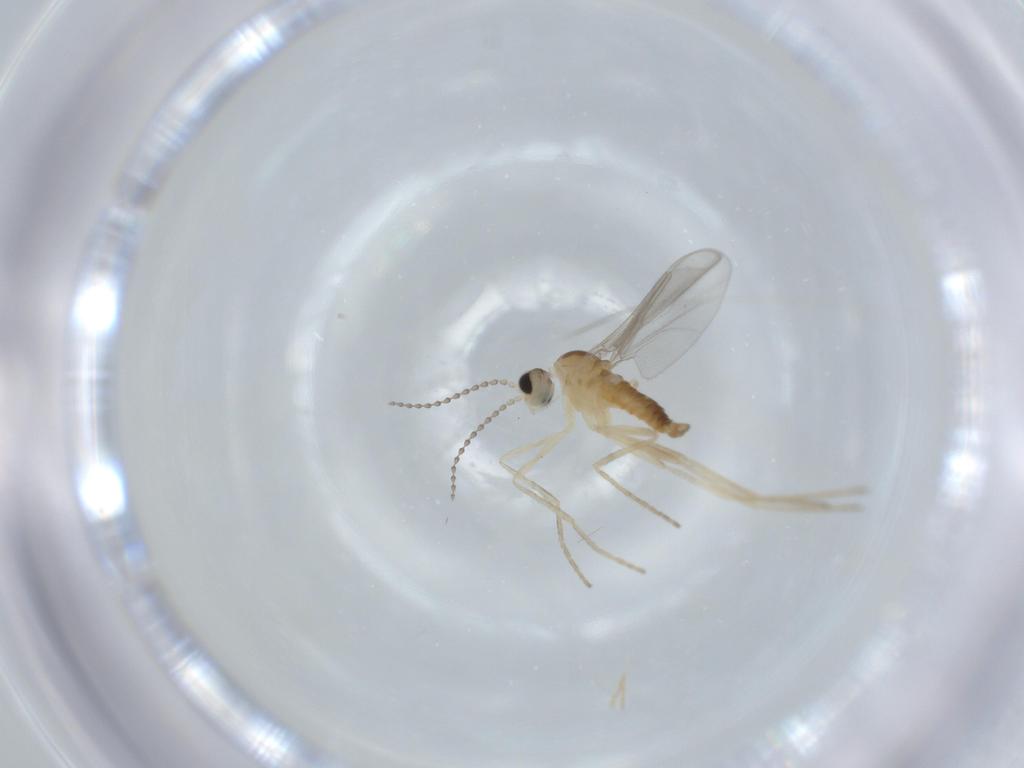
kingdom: Animalia
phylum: Arthropoda
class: Insecta
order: Diptera
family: Cecidomyiidae
